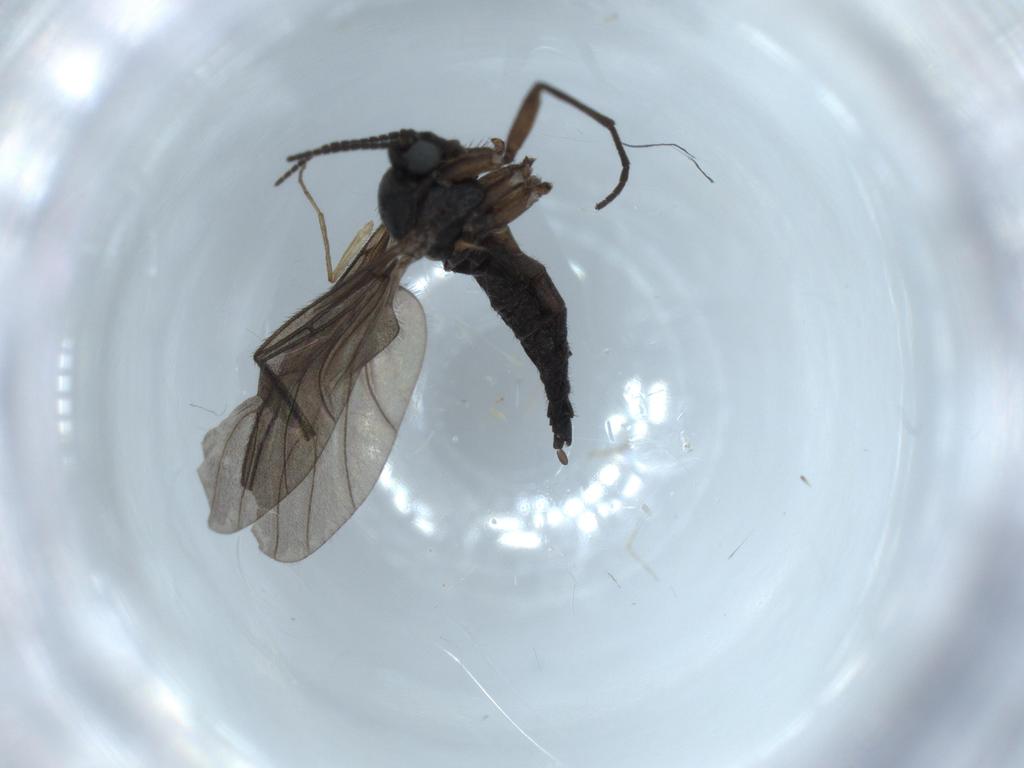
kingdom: Animalia
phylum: Arthropoda
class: Insecta
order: Diptera
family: Sciaridae
